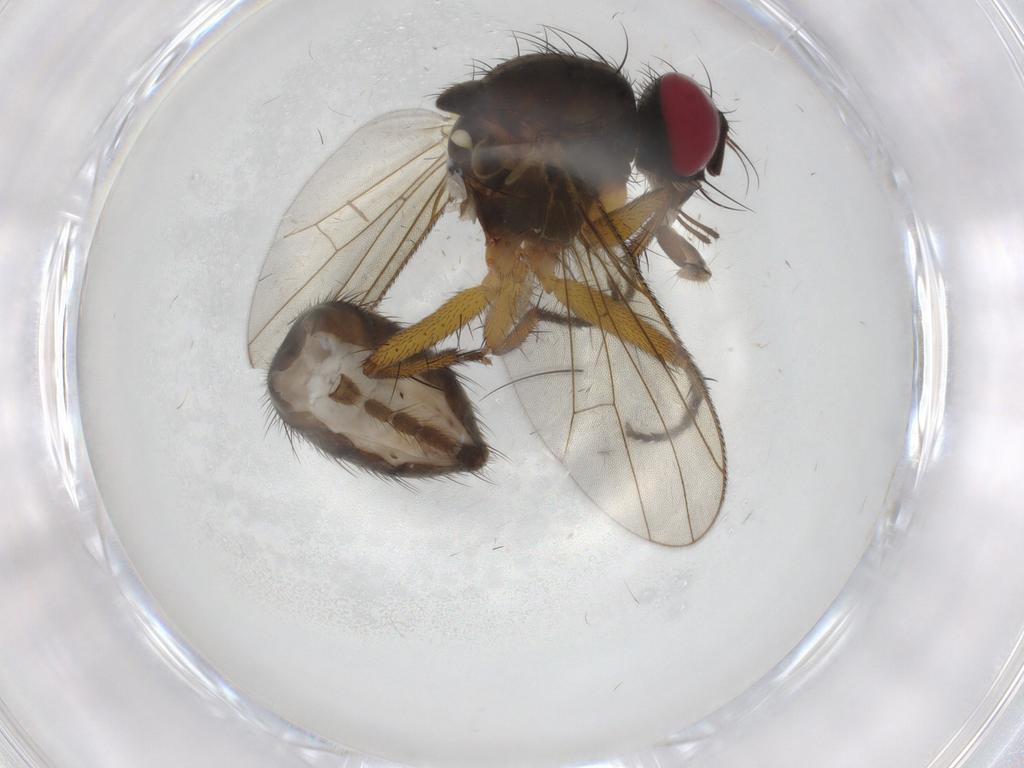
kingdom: Animalia
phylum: Arthropoda
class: Insecta
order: Diptera
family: Muscidae
